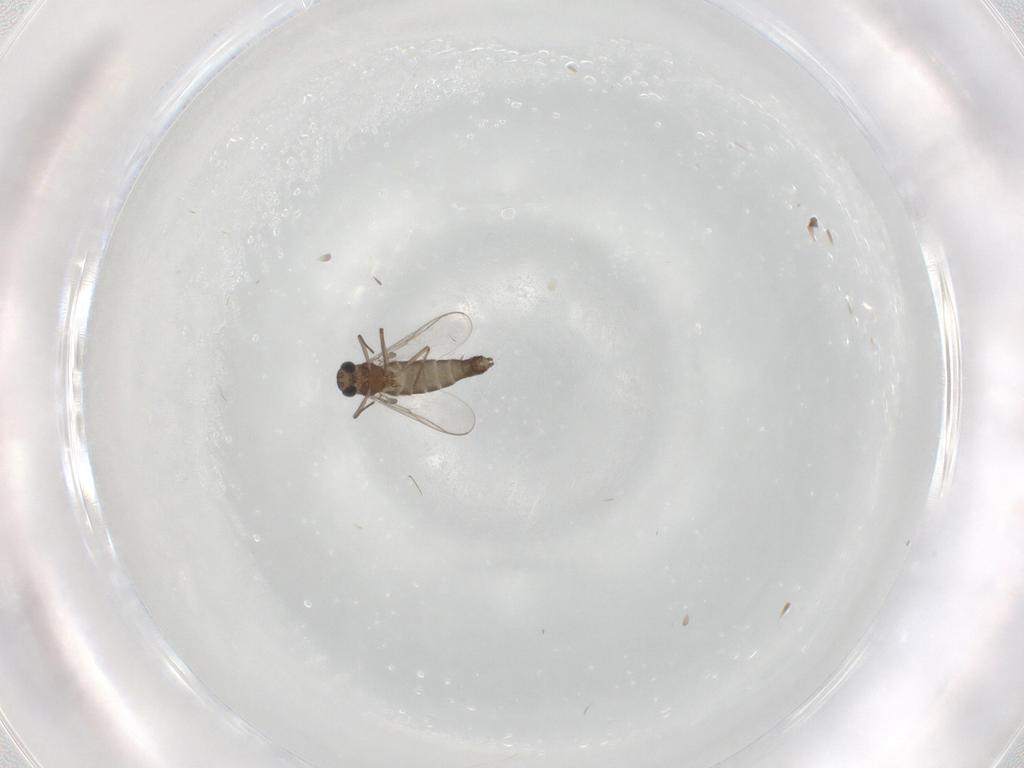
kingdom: Animalia
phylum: Arthropoda
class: Insecta
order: Diptera
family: Chironomidae
